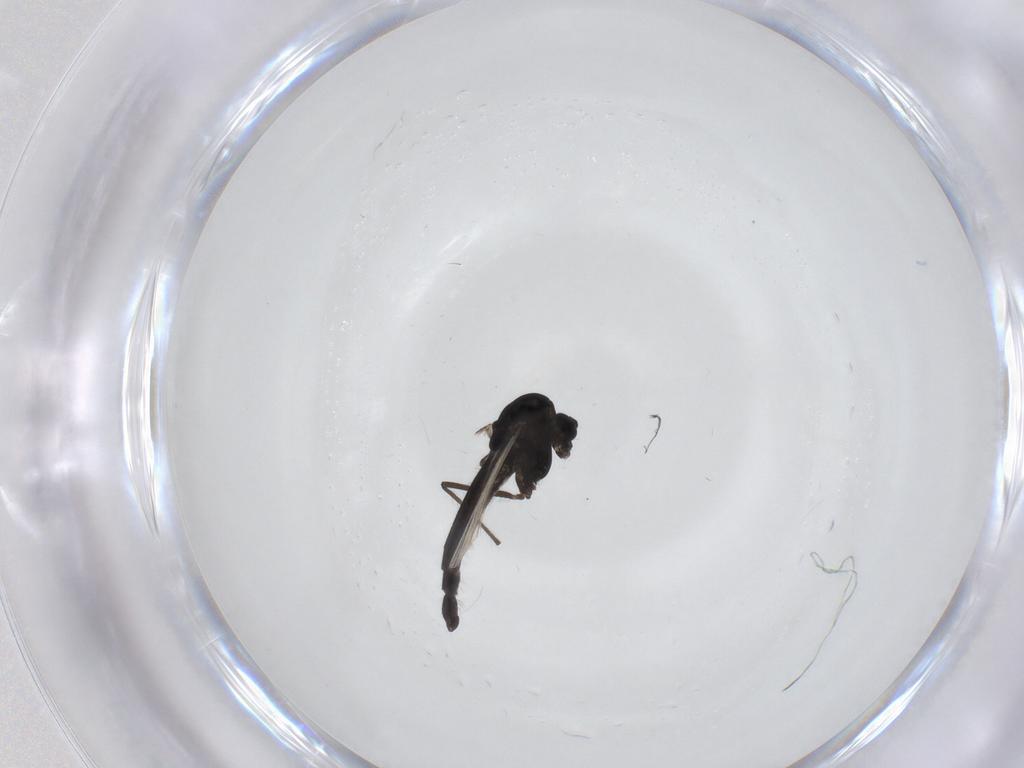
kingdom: Animalia
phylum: Arthropoda
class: Insecta
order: Diptera
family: Chironomidae
